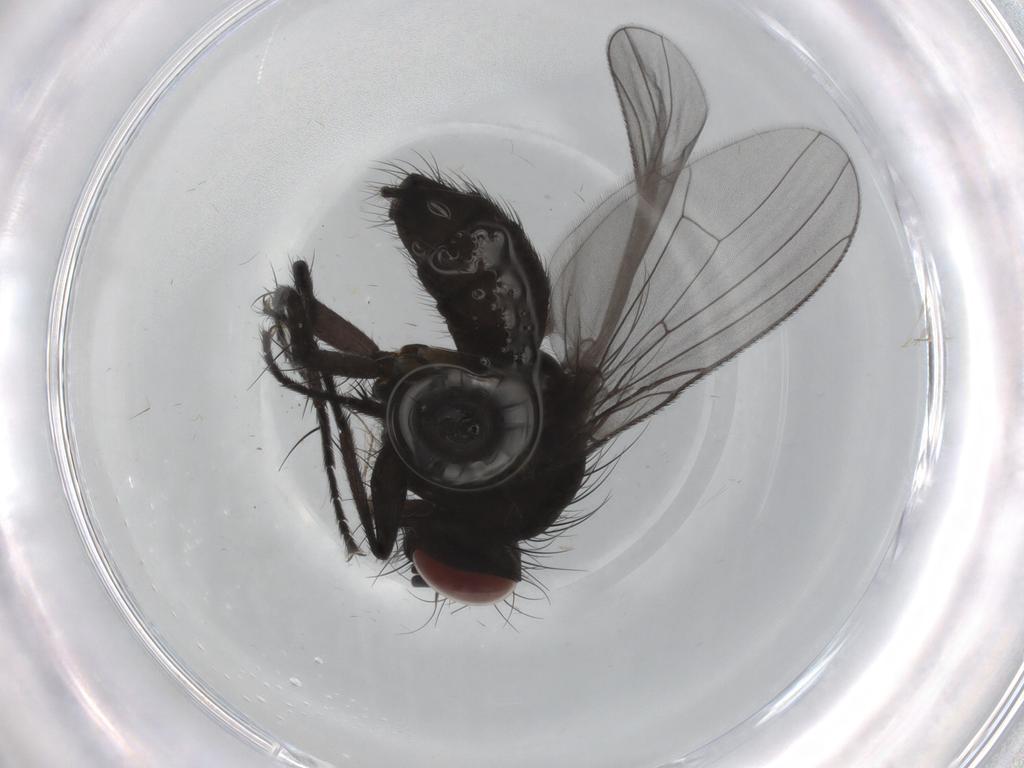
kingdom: Animalia
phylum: Arthropoda
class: Insecta
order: Diptera
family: Muscidae
